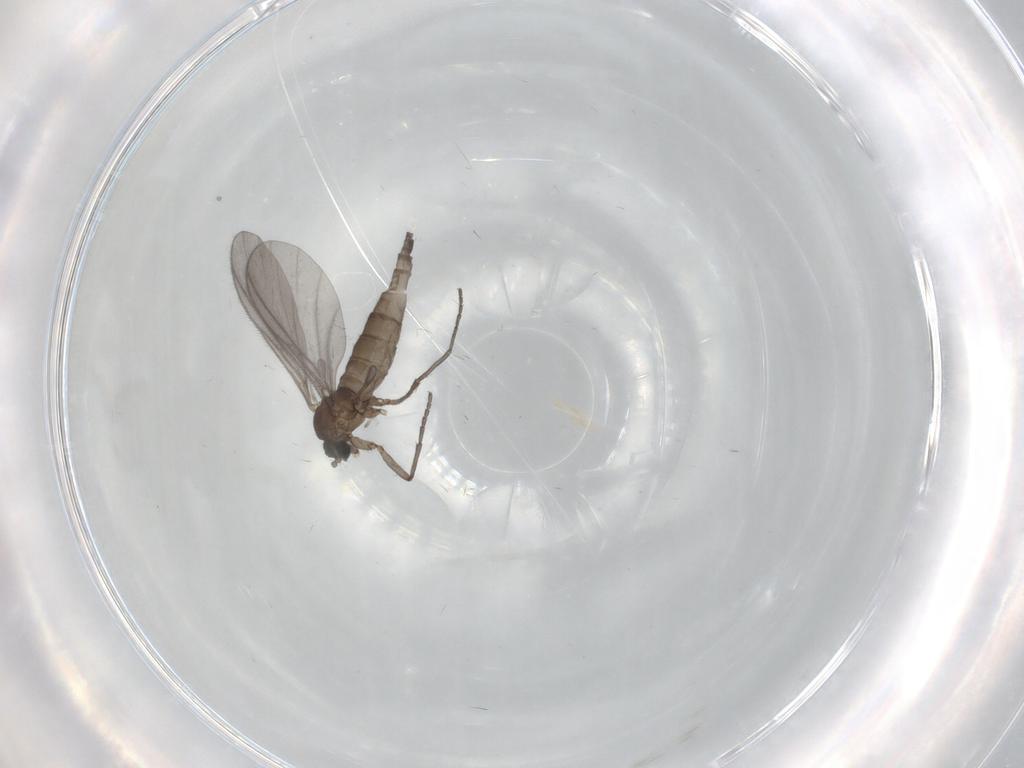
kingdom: Animalia
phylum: Arthropoda
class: Insecta
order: Diptera
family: Sciaridae
